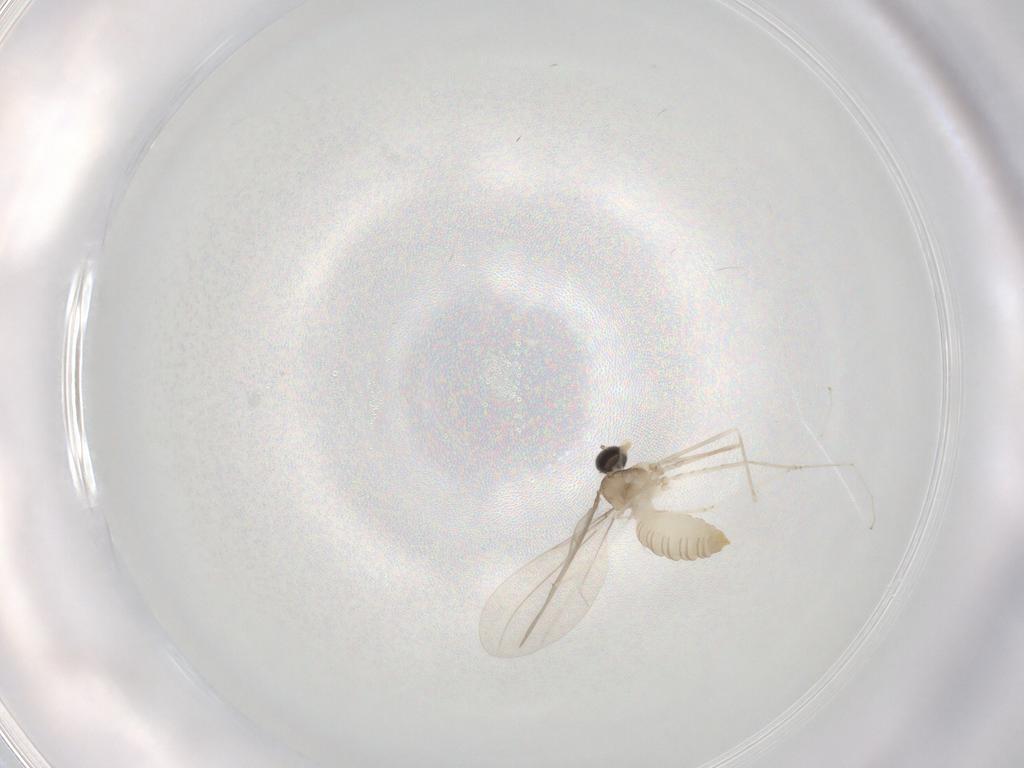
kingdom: Animalia
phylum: Arthropoda
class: Insecta
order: Diptera
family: Cecidomyiidae
